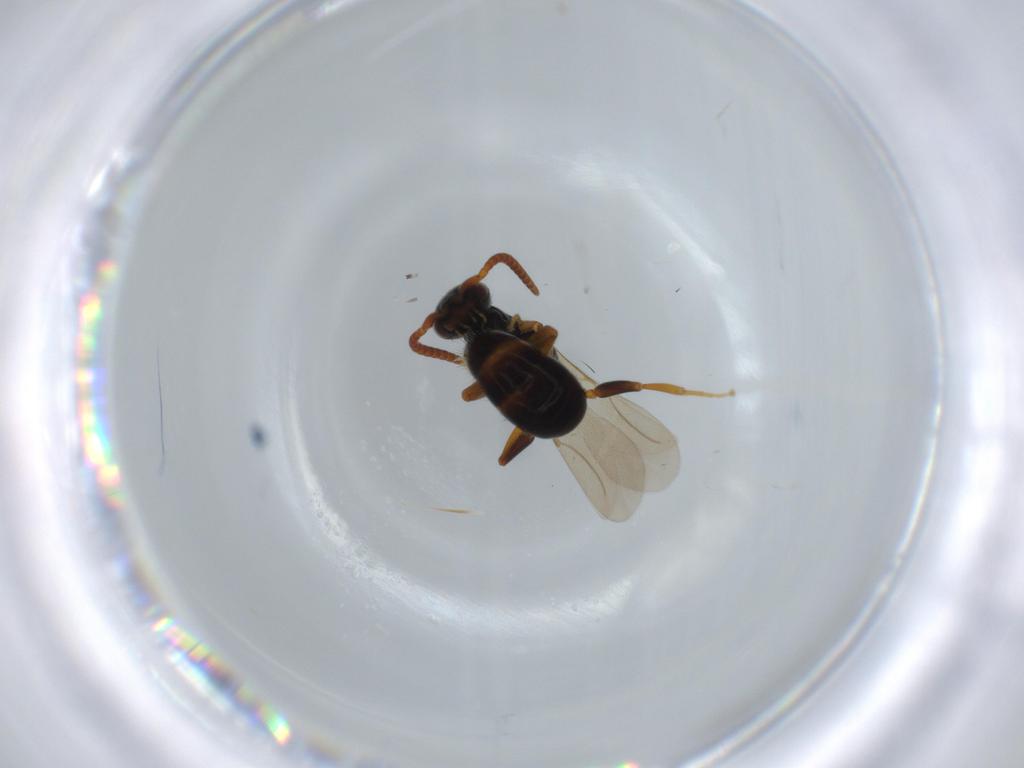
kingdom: Animalia
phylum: Arthropoda
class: Insecta
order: Hymenoptera
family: Bethylidae
